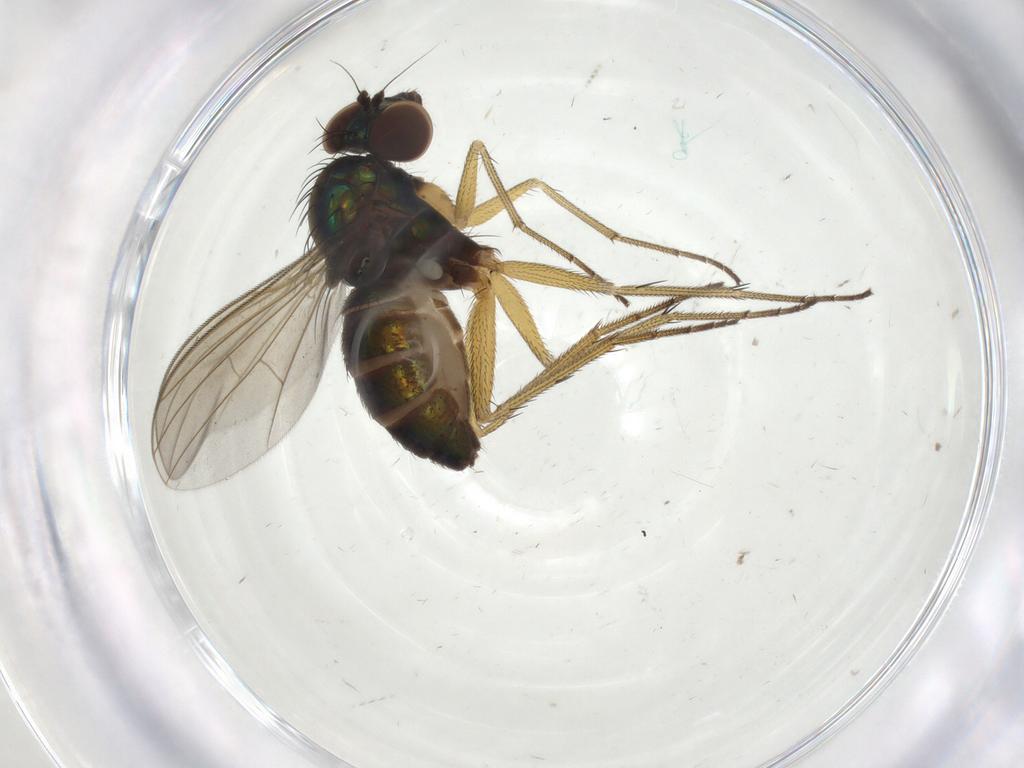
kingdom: Animalia
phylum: Arthropoda
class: Insecta
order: Diptera
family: Dolichopodidae
